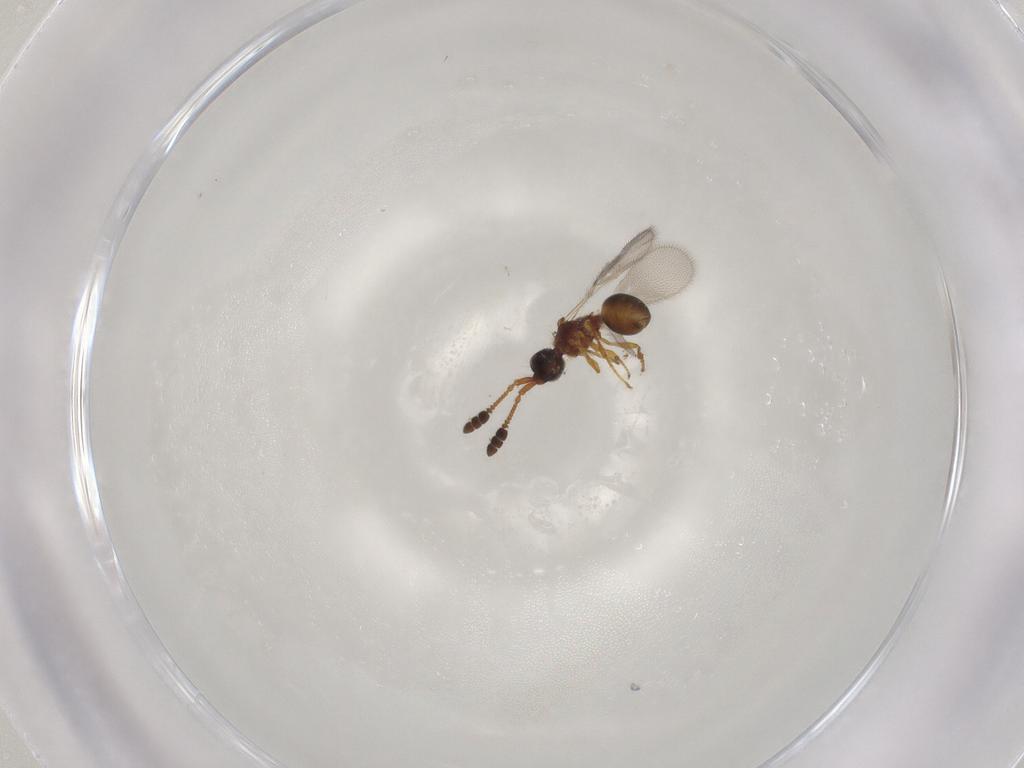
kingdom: Animalia
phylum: Arthropoda
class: Insecta
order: Hymenoptera
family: Diapriidae
